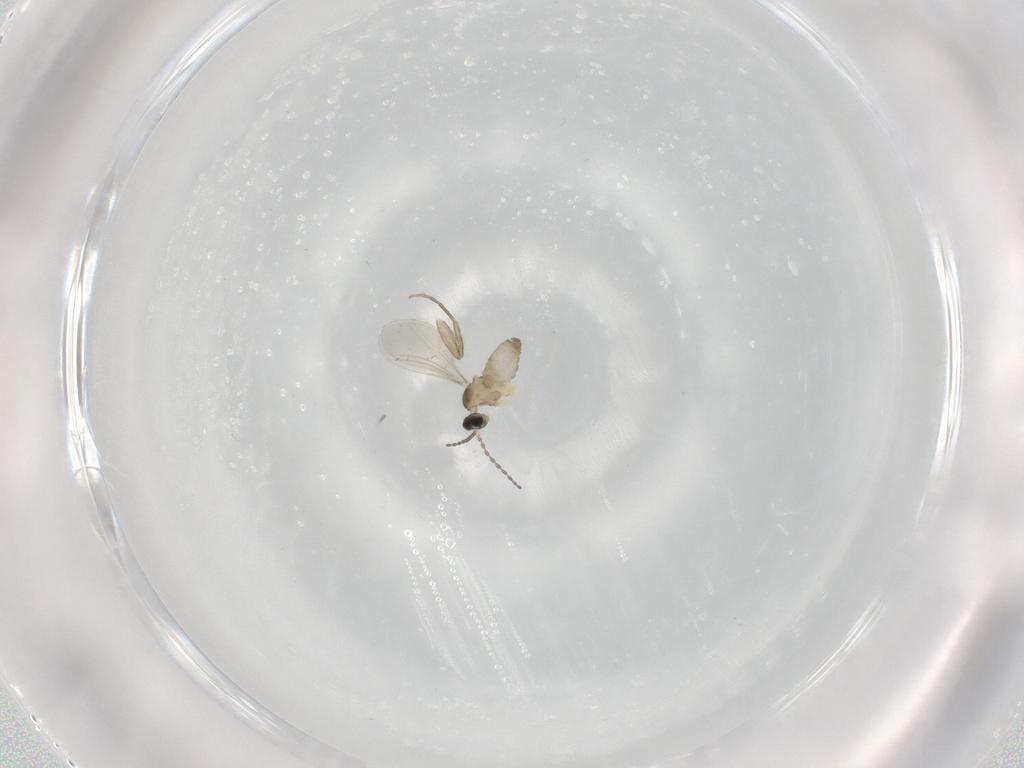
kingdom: Animalia
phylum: Arthropoda
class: Insecta
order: Diptera
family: Cecidomyiidae
